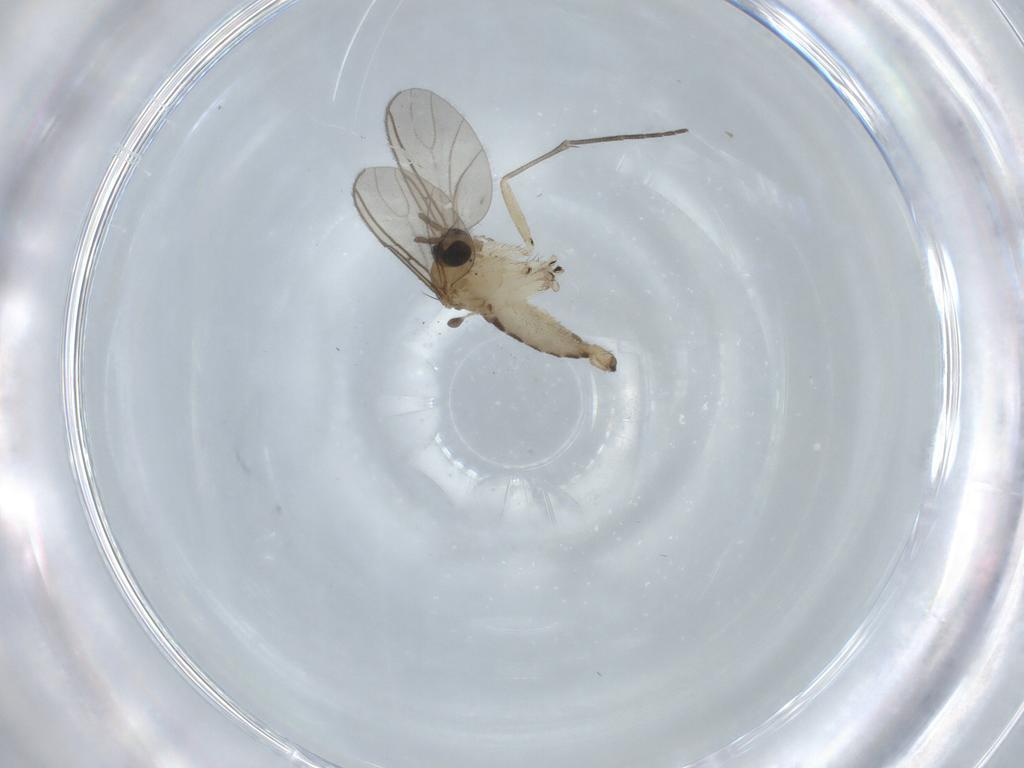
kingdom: Animalia
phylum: Arthropoda
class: Insecta
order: Diptera
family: Sciaridae
